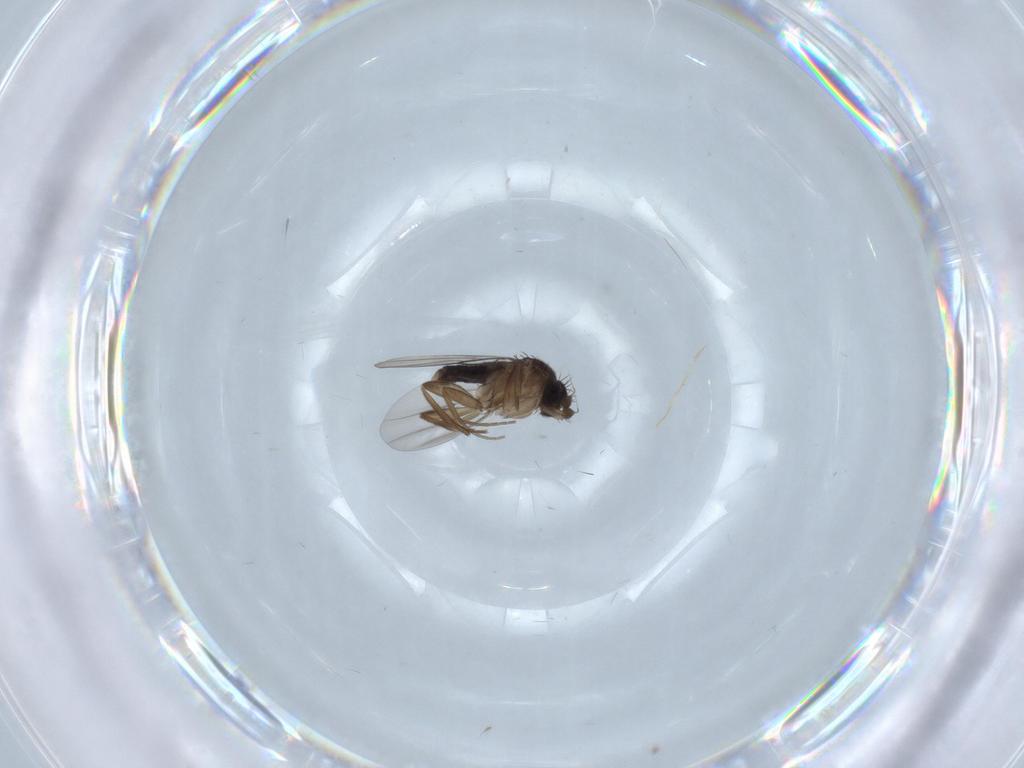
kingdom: Animalia
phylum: Arthropoda
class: Insecta
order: Diptera
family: Phoridae
